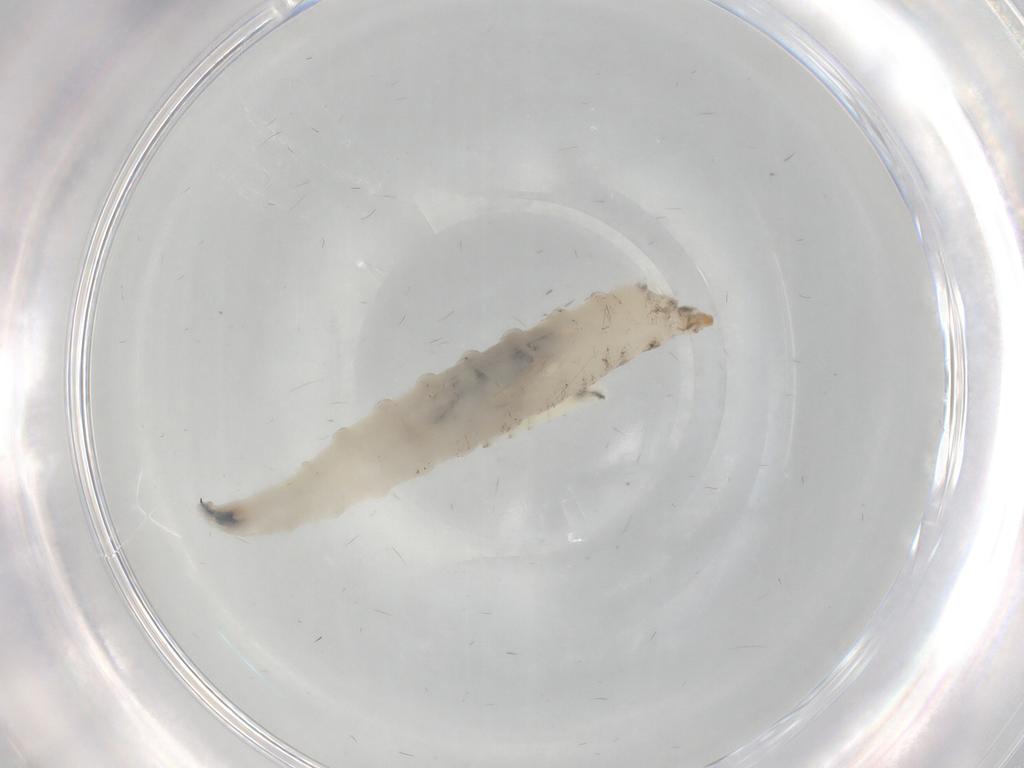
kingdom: Animalia
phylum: Arthropoda
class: Insecta
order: Diptera
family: Drosophilidae
